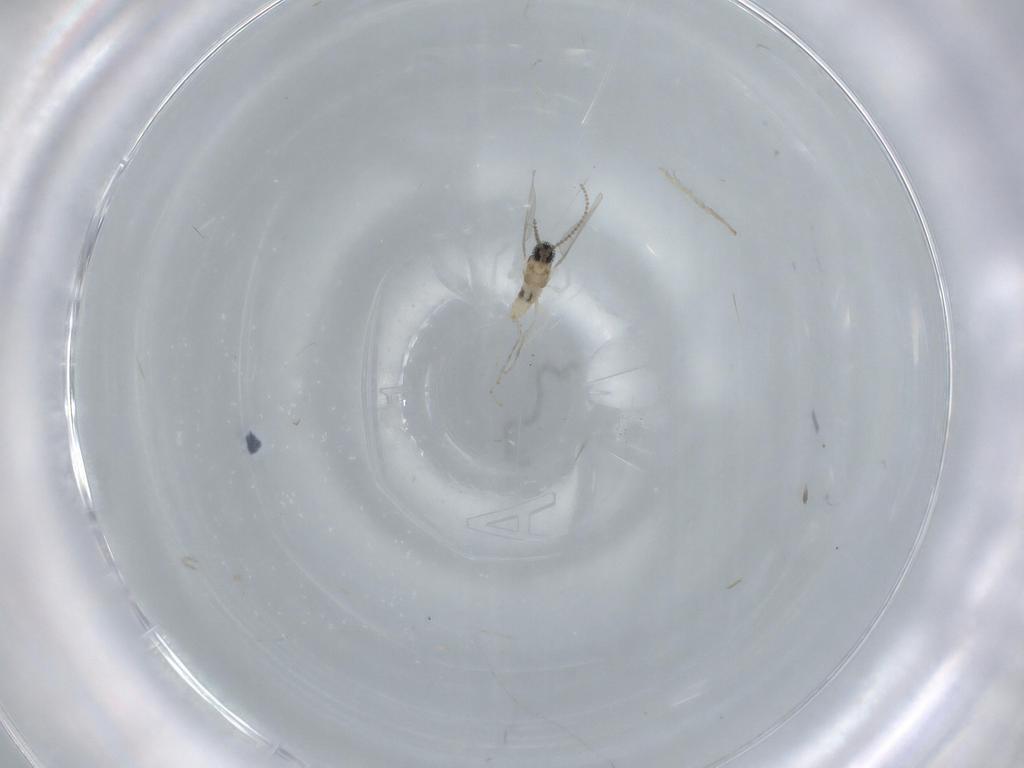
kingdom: Animalia
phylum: Arthropoda
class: Insecta
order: Diptera
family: Cecidomyiidae
